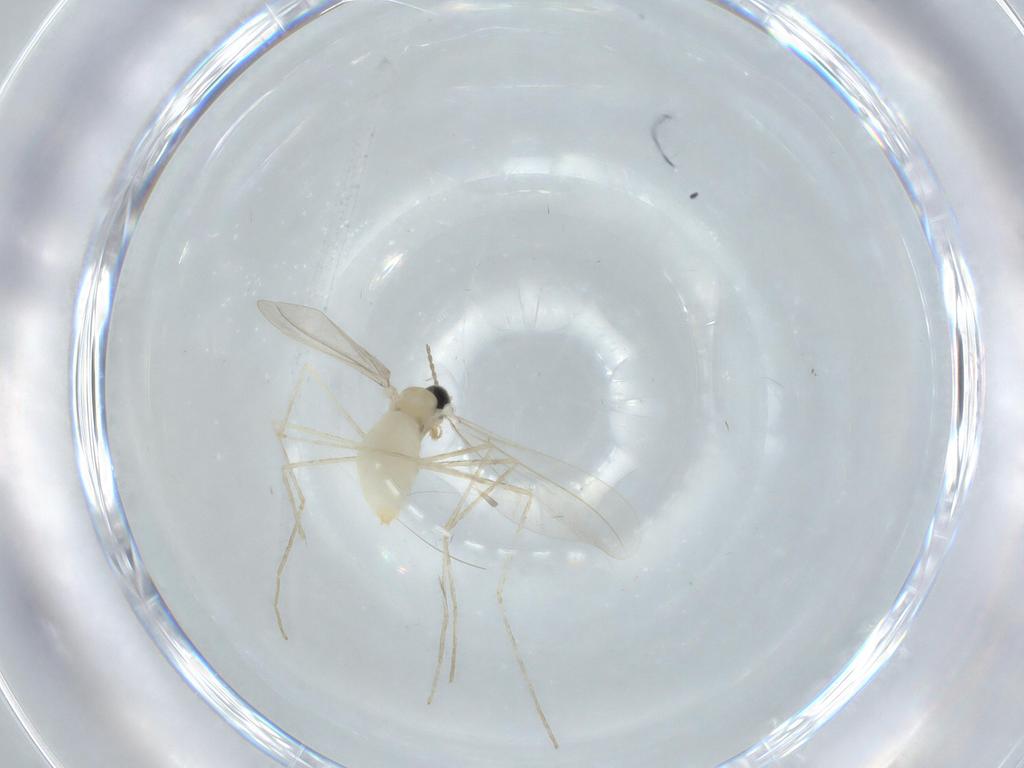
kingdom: Animalia
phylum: Arthropoda
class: Insecta
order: Diptera
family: Cecidomyiidae
